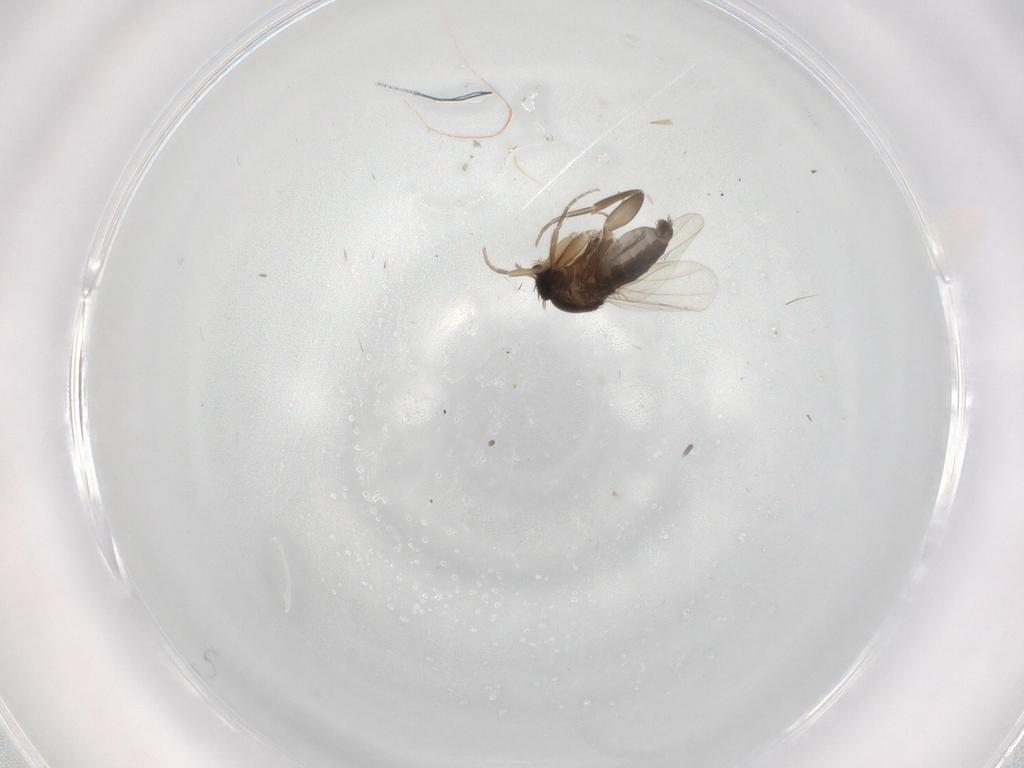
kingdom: Animalia
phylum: Arthropoda
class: Insecta
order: Diptera
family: Phoridae
